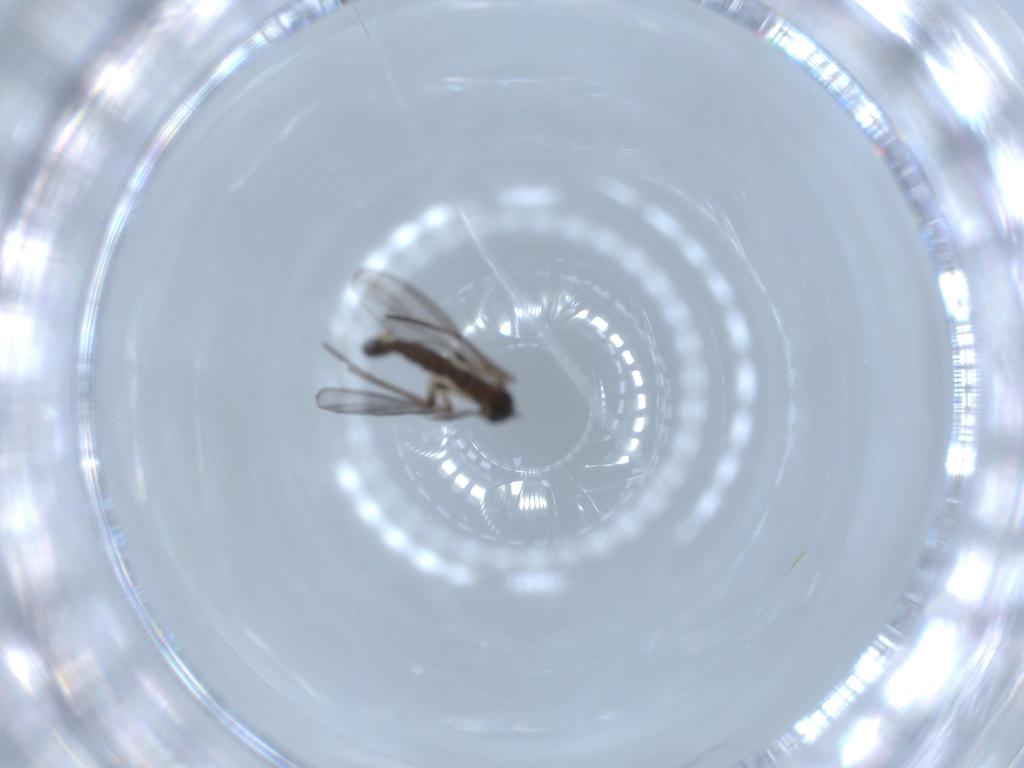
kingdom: Animalia
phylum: Arthropoda
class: Insecta
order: Diptera
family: Sciaridae
